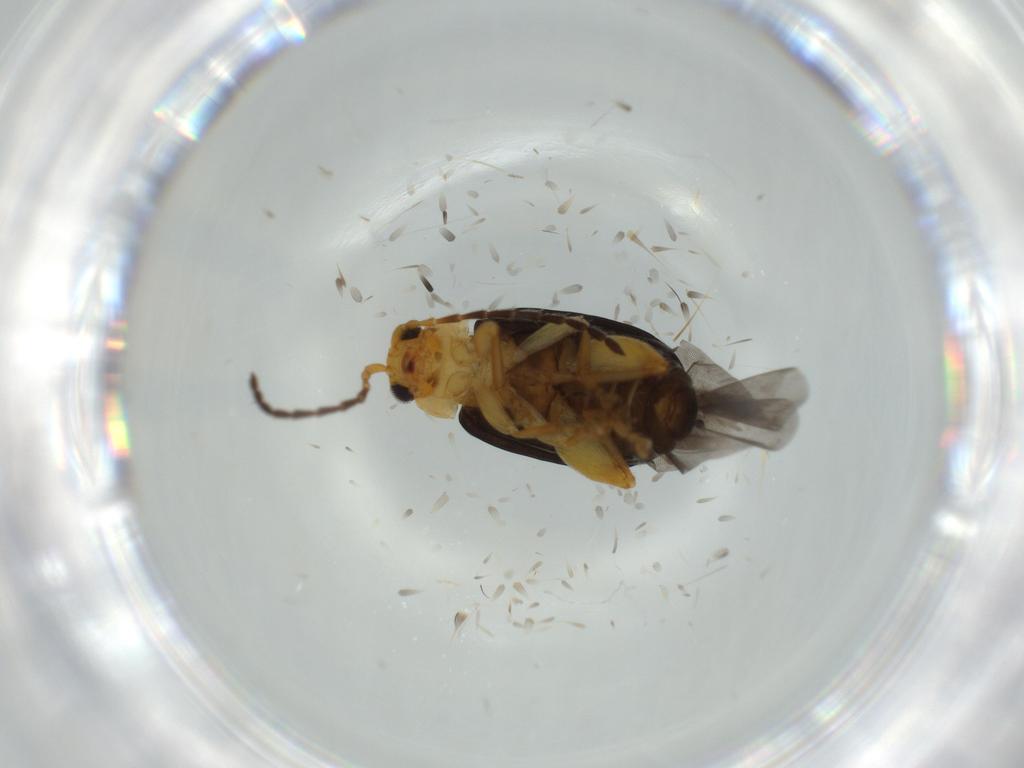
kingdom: Animalia
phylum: Arthropoda
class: Insecta
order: Coleoptera
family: Chrysomelidae
